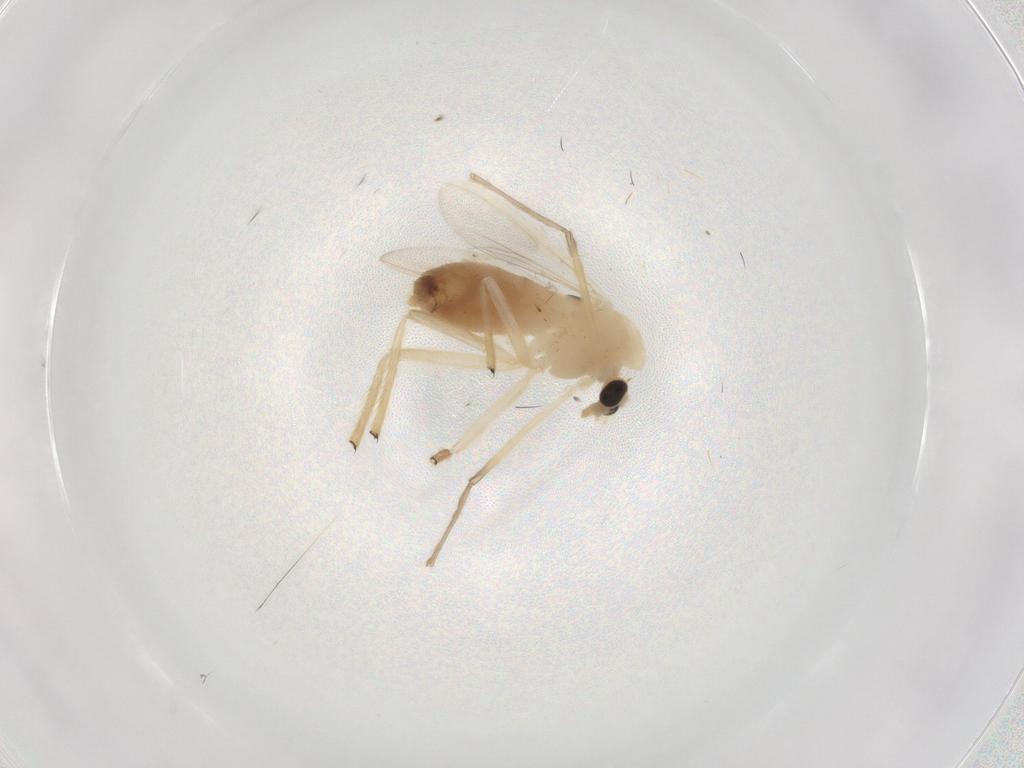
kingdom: Animalia
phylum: Arthropoda
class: Insecta
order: Diptera
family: Chironomidae
